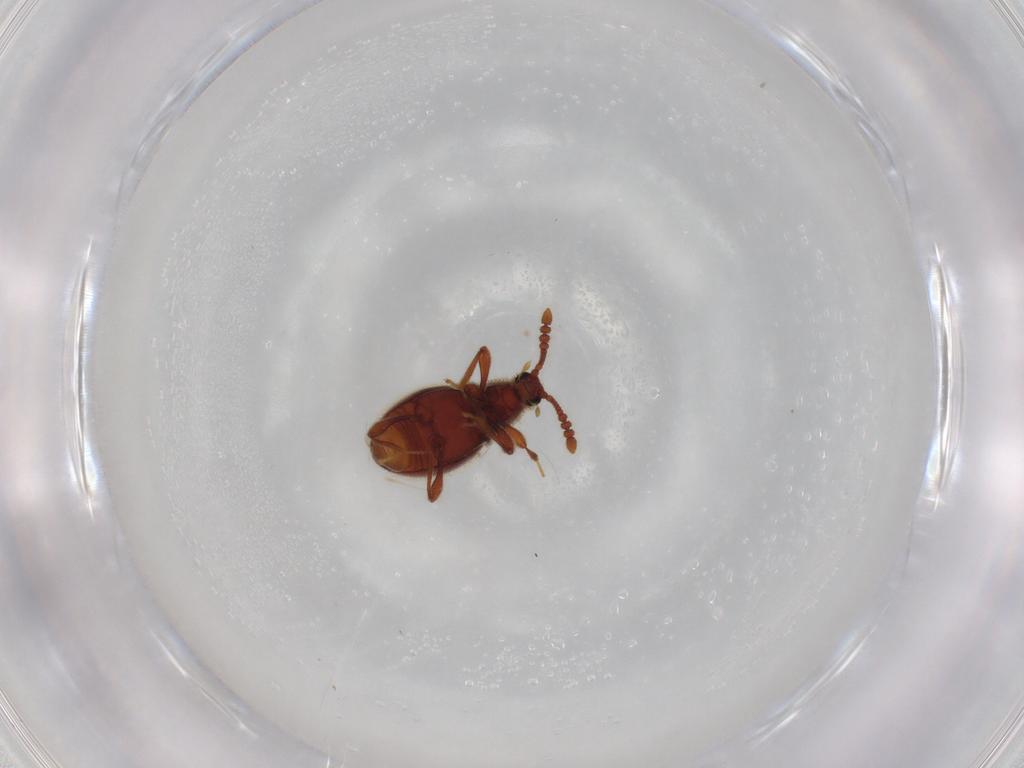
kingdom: Animalia
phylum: Arthropoda
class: Insecta
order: Coleoptera
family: Staphylinidae
